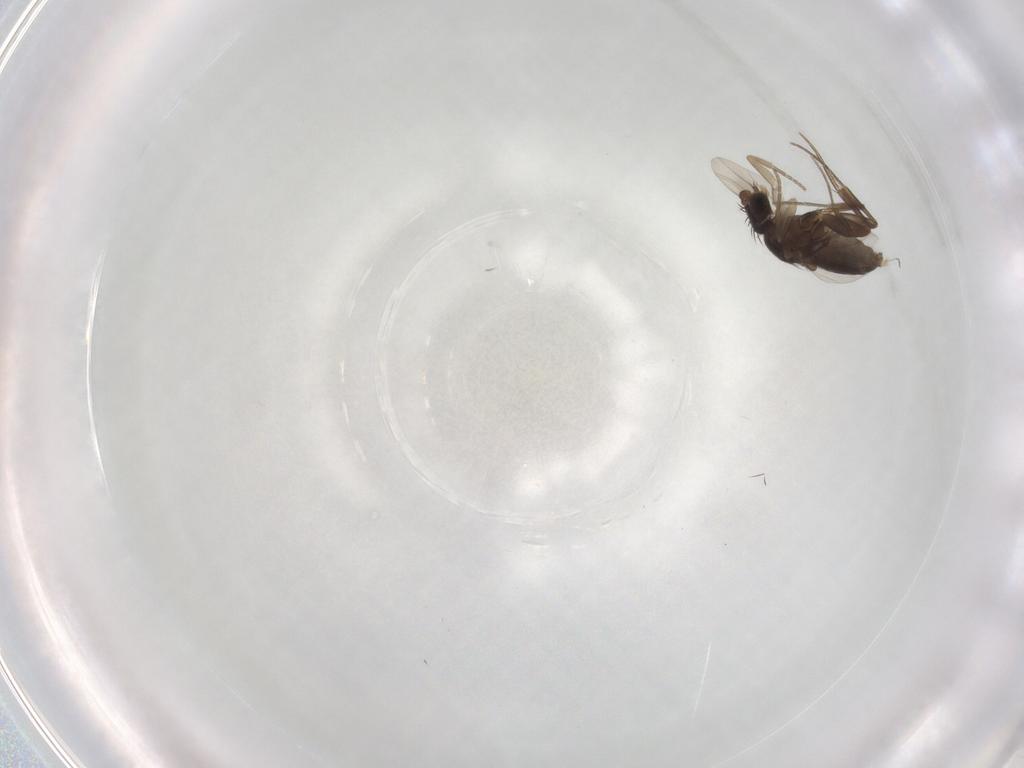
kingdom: Animalia
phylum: Arthropoda
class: Insecta
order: Diptera
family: Phoridae
